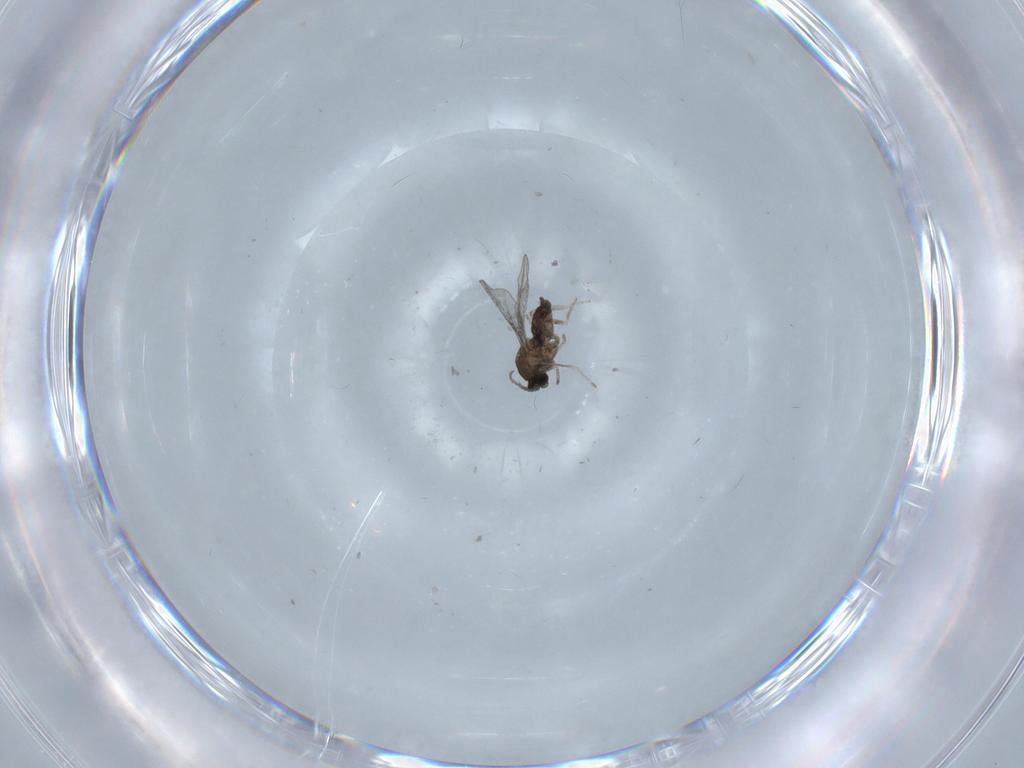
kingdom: Animalia
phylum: Arthropoda
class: Insecta
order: Diptera
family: Cecidomyiidae
